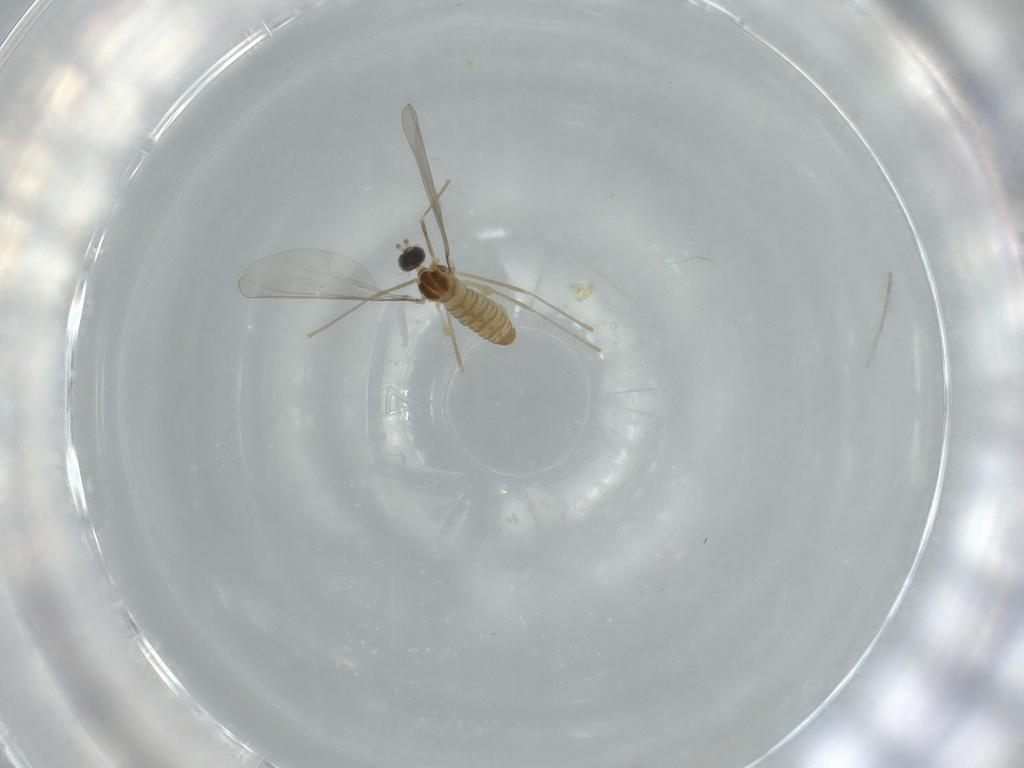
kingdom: Animalia
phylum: Arthropoda
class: Insecta
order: Diptera
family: Cecidomyiidae
